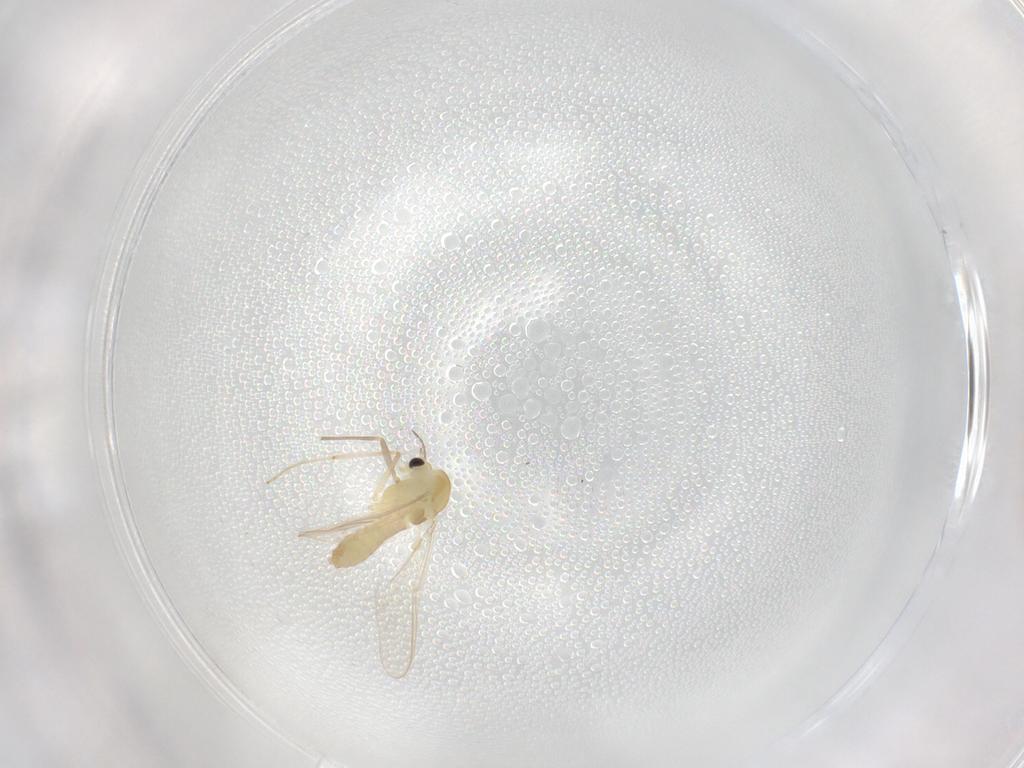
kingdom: Animalia
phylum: Arthropoda
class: Insecta
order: Diptera
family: Chironomidae
